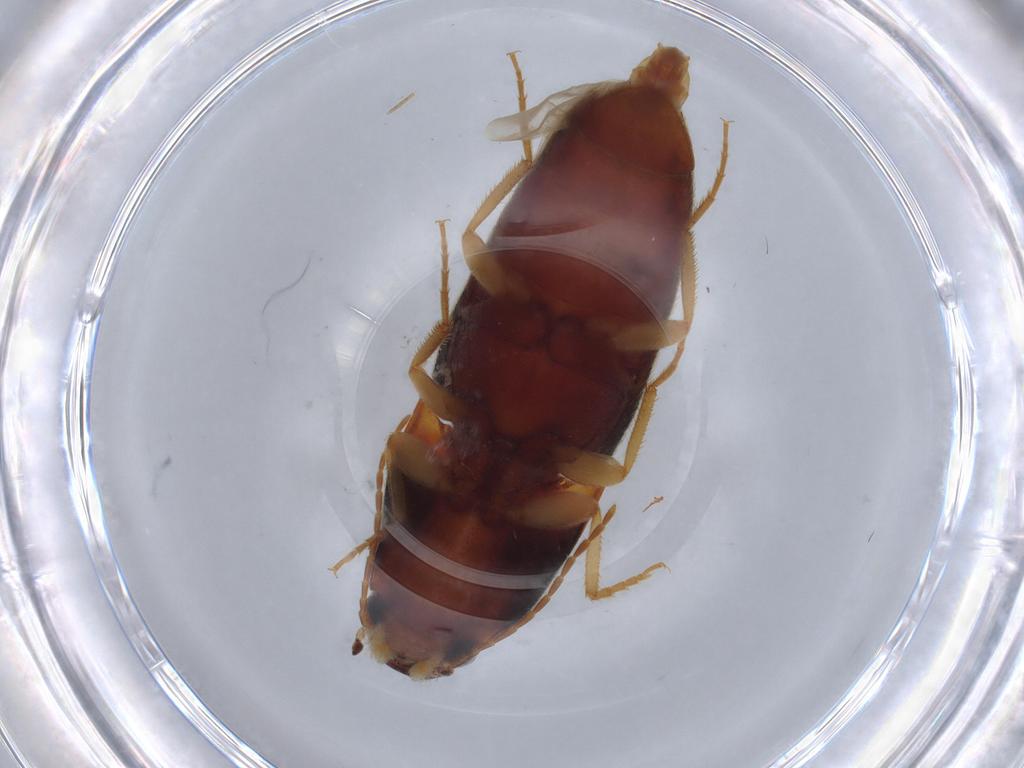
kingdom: Animalia
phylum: Arthropoda
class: Insecta
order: Coleoptera
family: Elateridae
